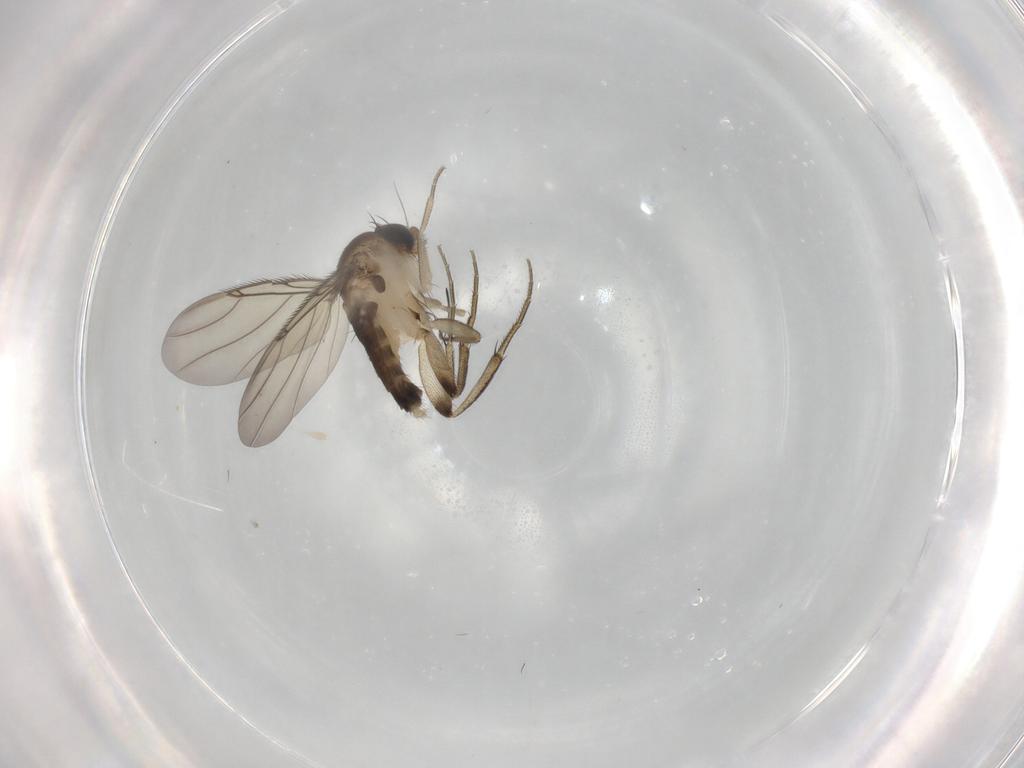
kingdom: Animalia
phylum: Arthropoda
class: Insecta
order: Diptera
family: Phoridae
